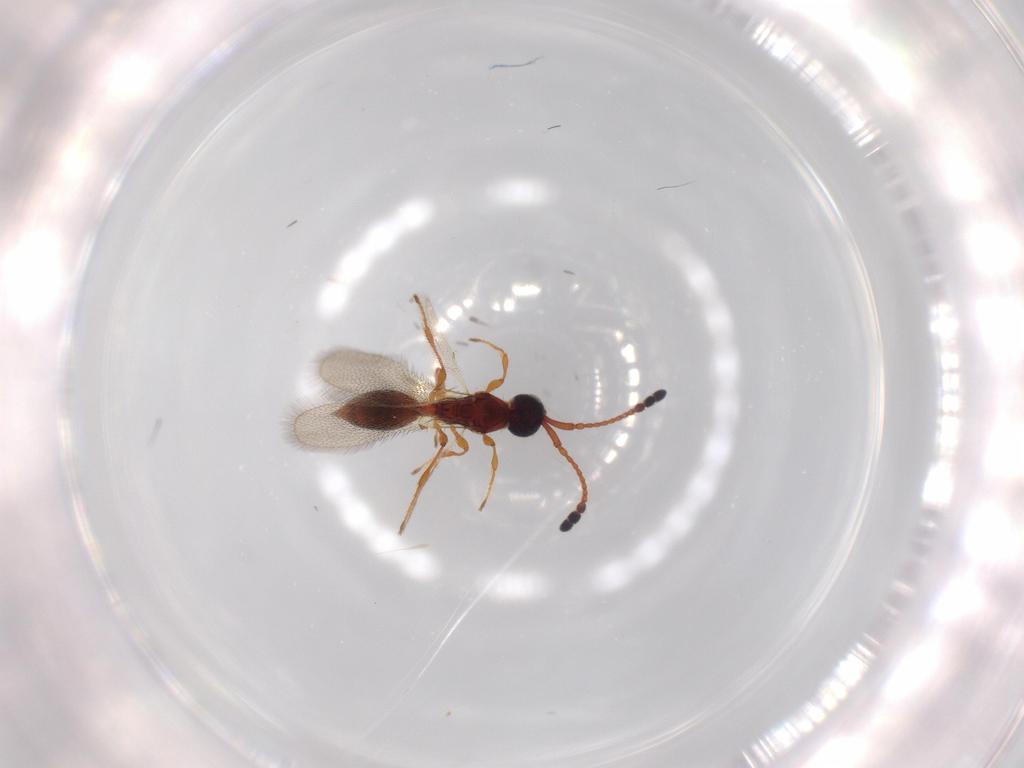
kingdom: Animalia
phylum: Arthropoda
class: Insecta
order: Hymenoptera
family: Diapriidae
